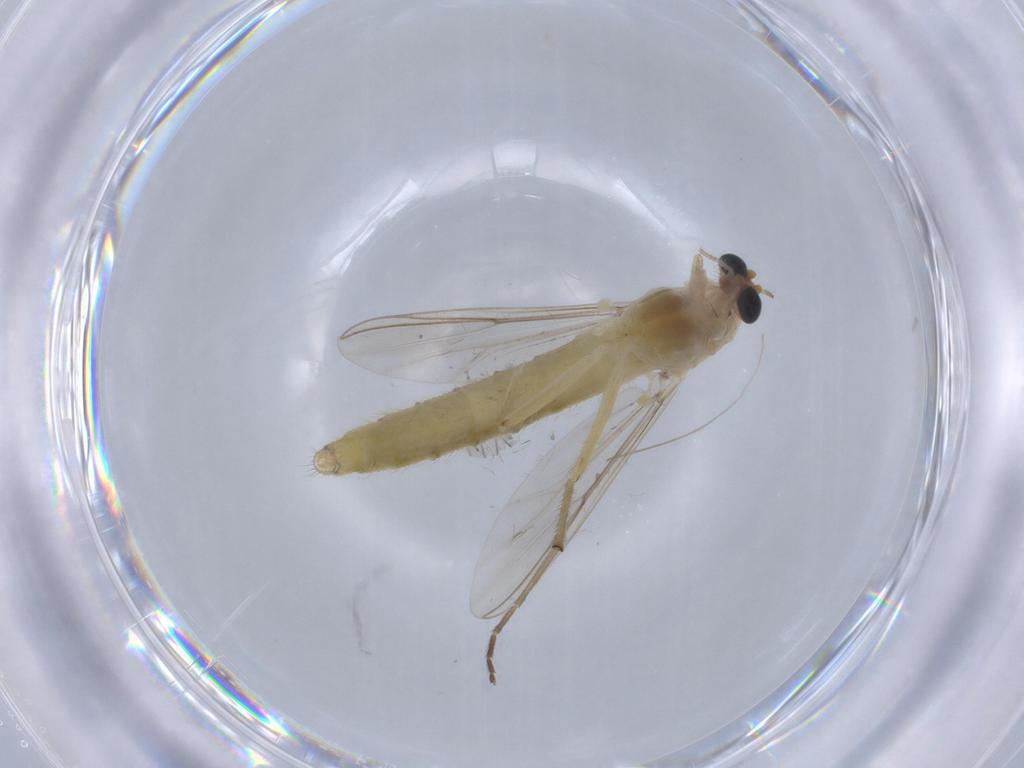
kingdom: Animalia
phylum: Arthropoda
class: Insecta
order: Diptera
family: Chironomidae
